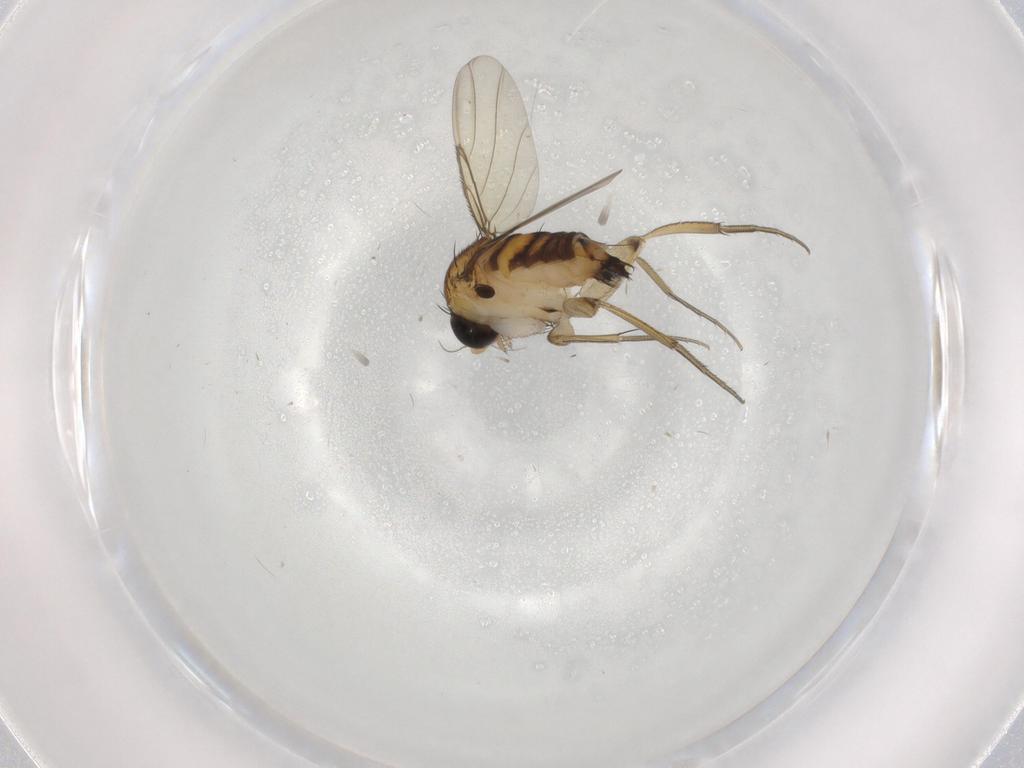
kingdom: Animalia
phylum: Arthropoda
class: Insecta
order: Diptera
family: Phoridae
